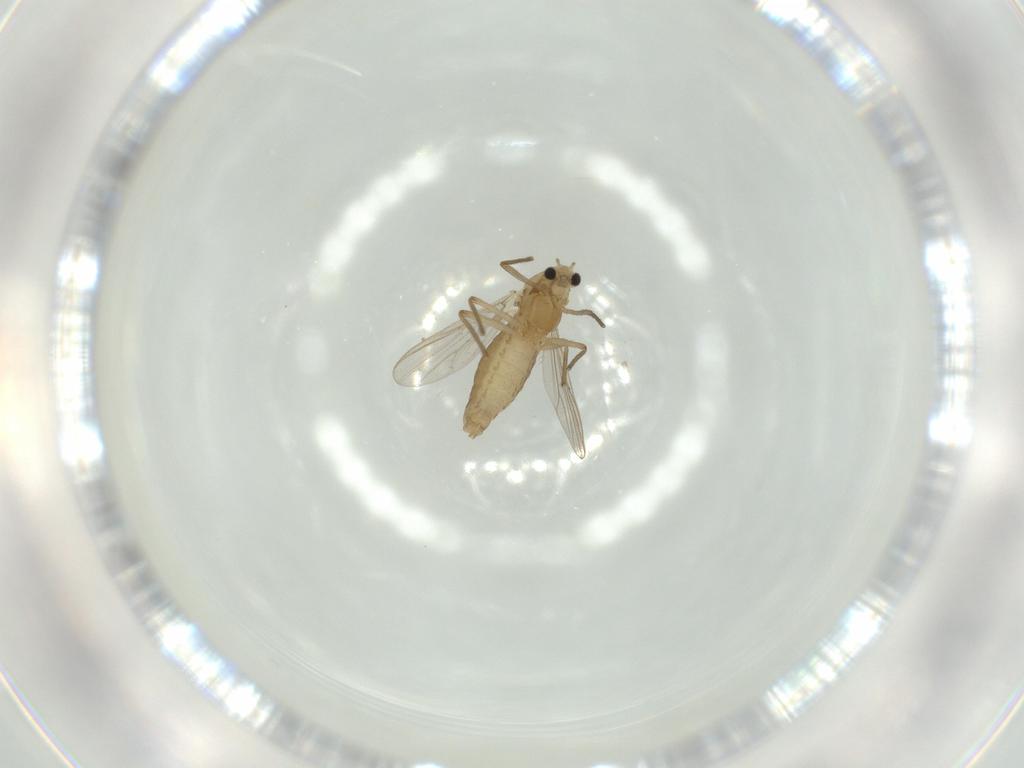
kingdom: Animalia
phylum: Arthropoda
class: Insecta
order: Diptera
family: Chironomidae
